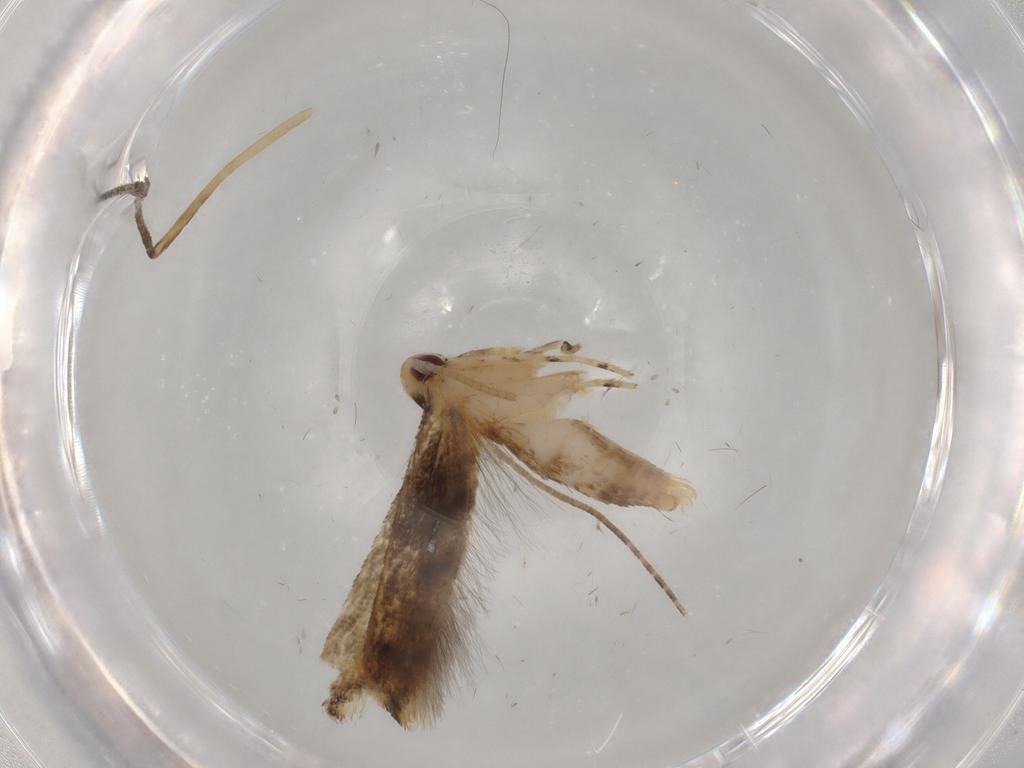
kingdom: Animalia
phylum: Arthropoda
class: Insecta
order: Lepidoptera
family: Momphidae
